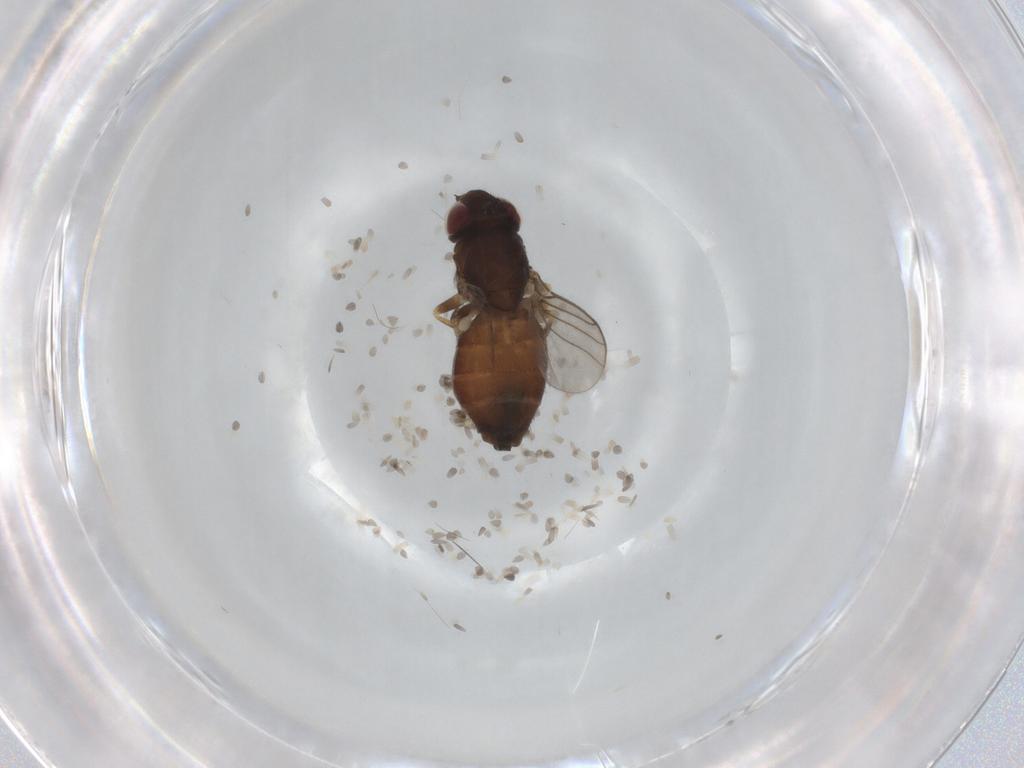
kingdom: Animalia
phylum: Arthropoda
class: Insecta
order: Diptera
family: Chloropidae
